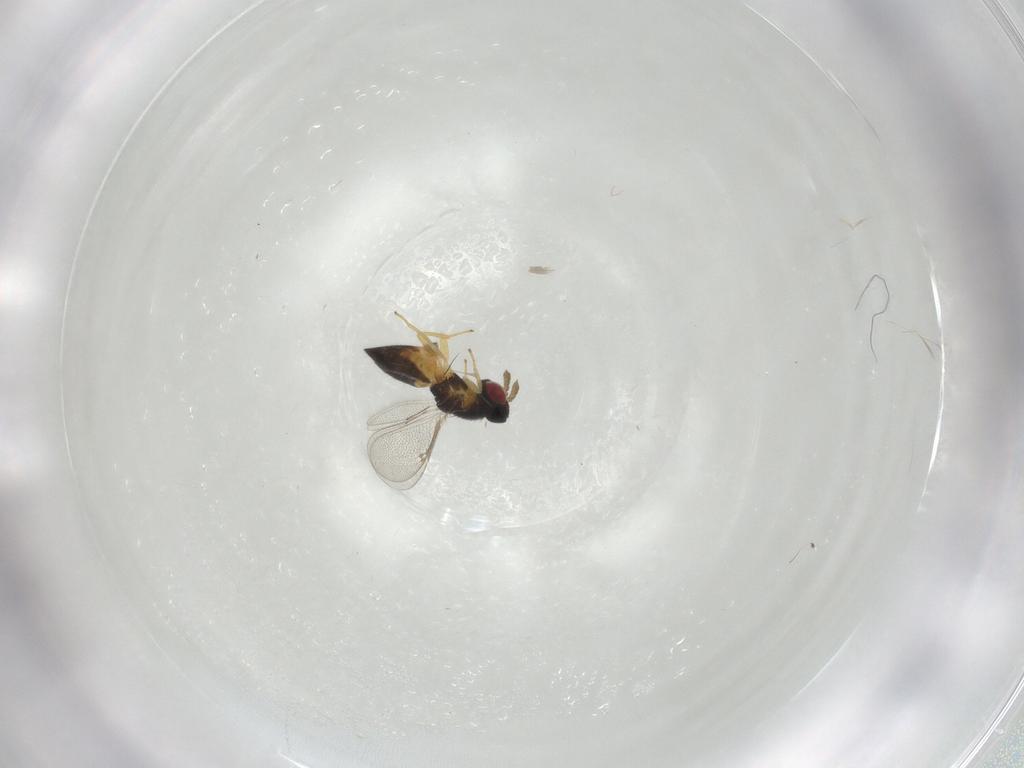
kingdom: Animalia
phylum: Arthropoda
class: Insecta
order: Hymenoptera
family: Eulophidae
